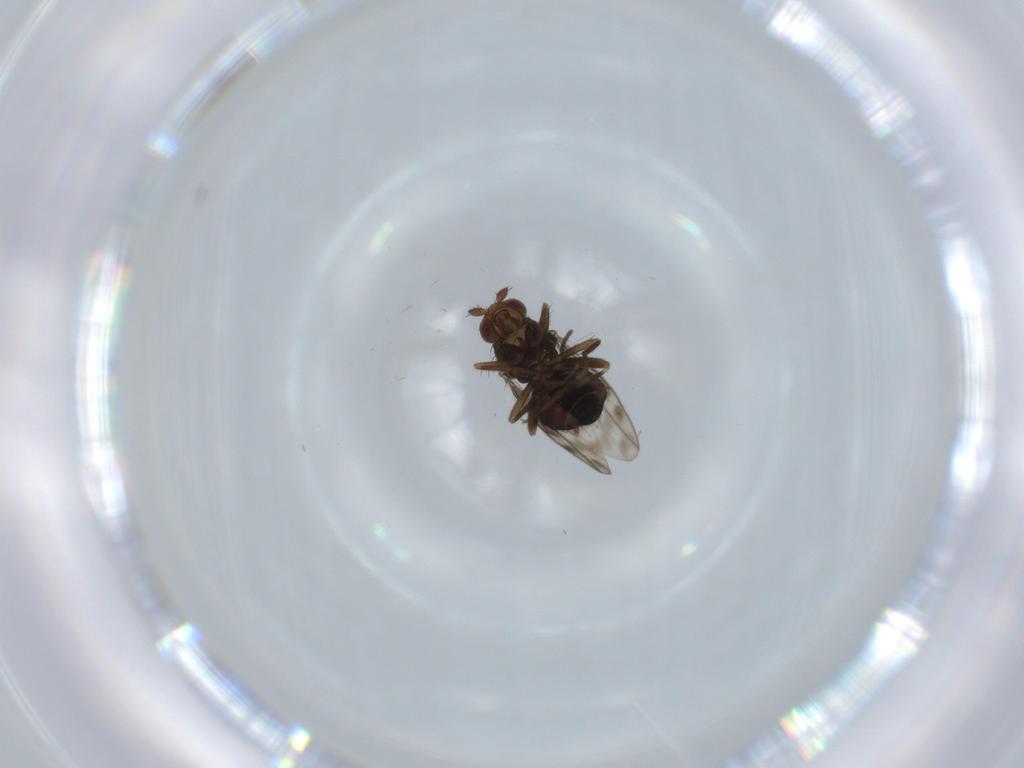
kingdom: Animalia
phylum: Arthropoda
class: Insecta
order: Diptera
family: Sphaeroceridae
